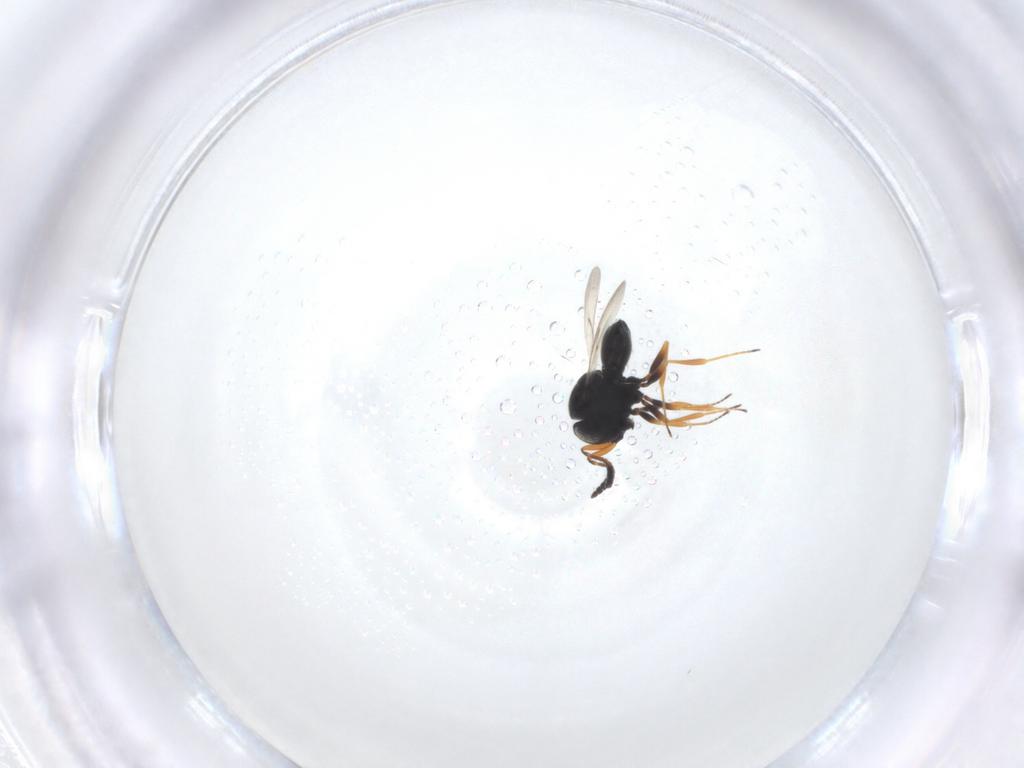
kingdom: Animalia
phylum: Arthropoda
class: Insecta
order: Hymenoptera
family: Scelionidae
